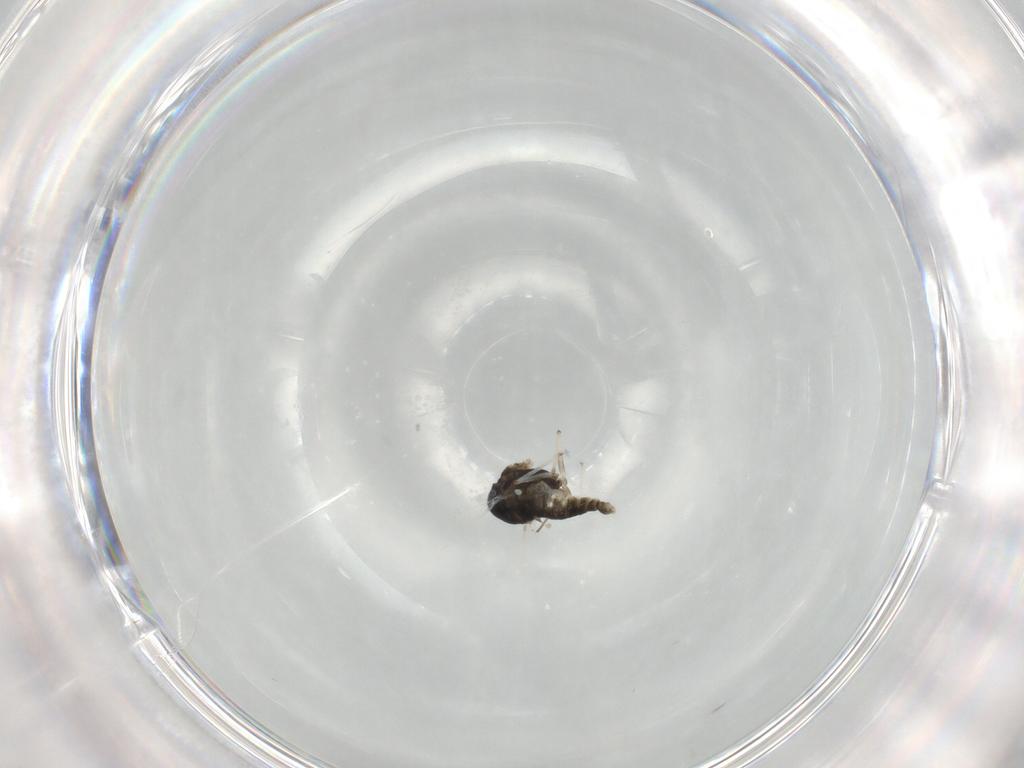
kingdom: Animalia
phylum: Arthropoda
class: Insecta
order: Diptera
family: Chironomidae
